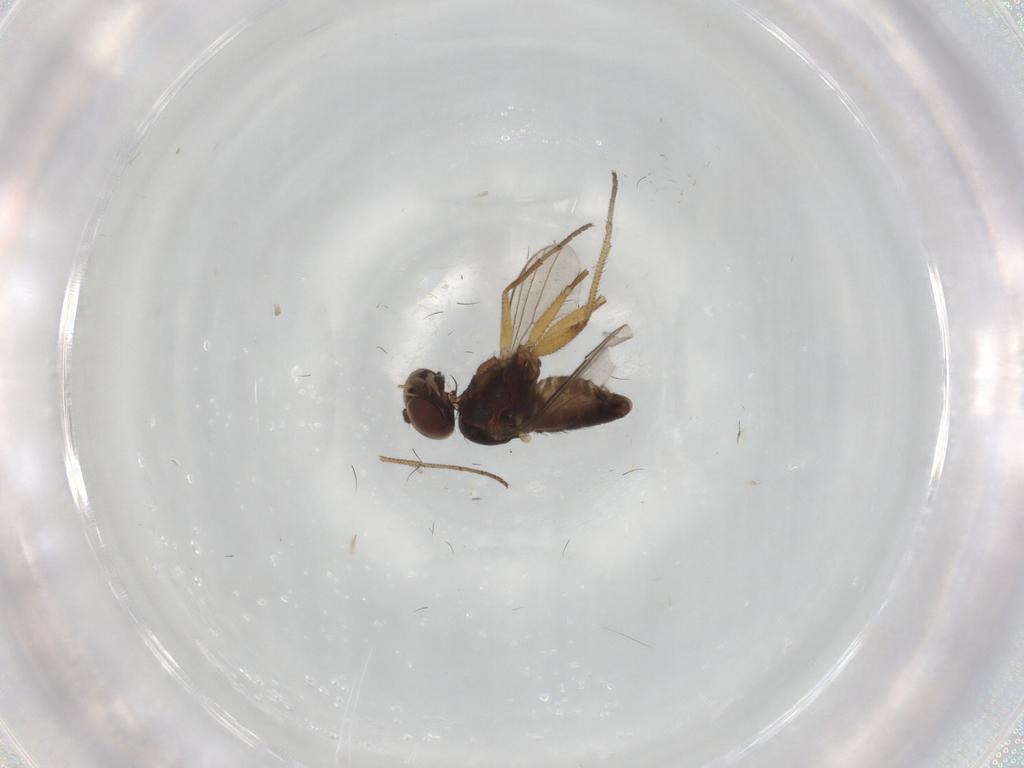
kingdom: Animalia
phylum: Arthropoda
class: Insecta
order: Diptera
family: Dolichopodidae
